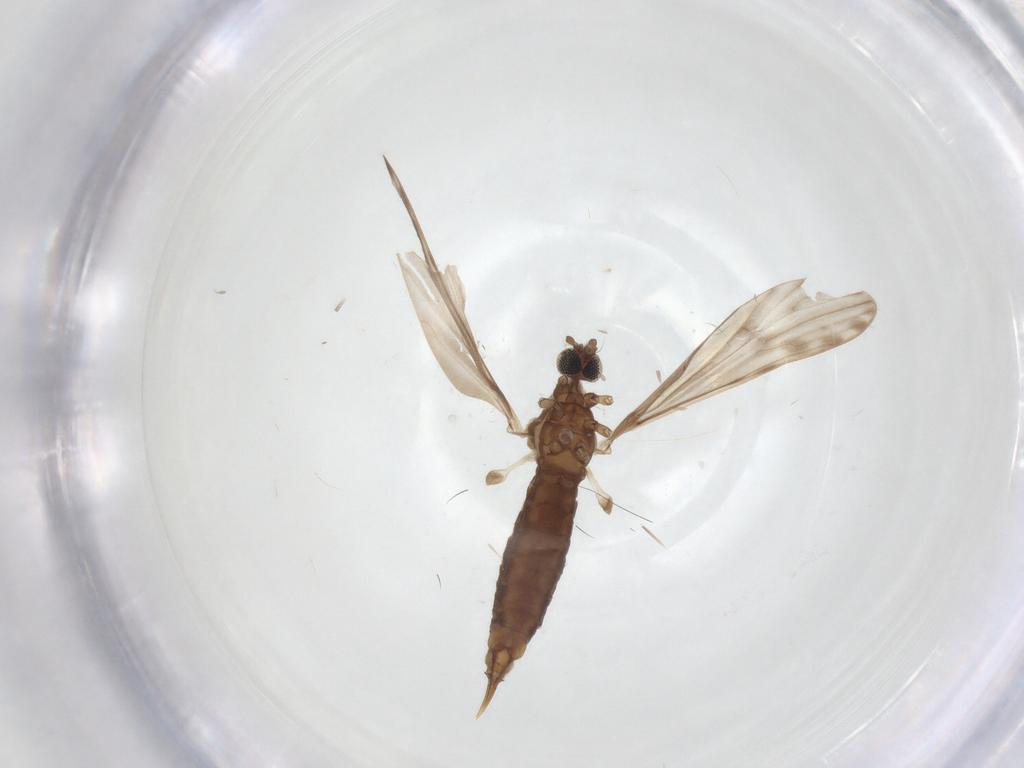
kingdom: Animalia
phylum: Arthropoda
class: Insecta
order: Diptera
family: Limoniidae
